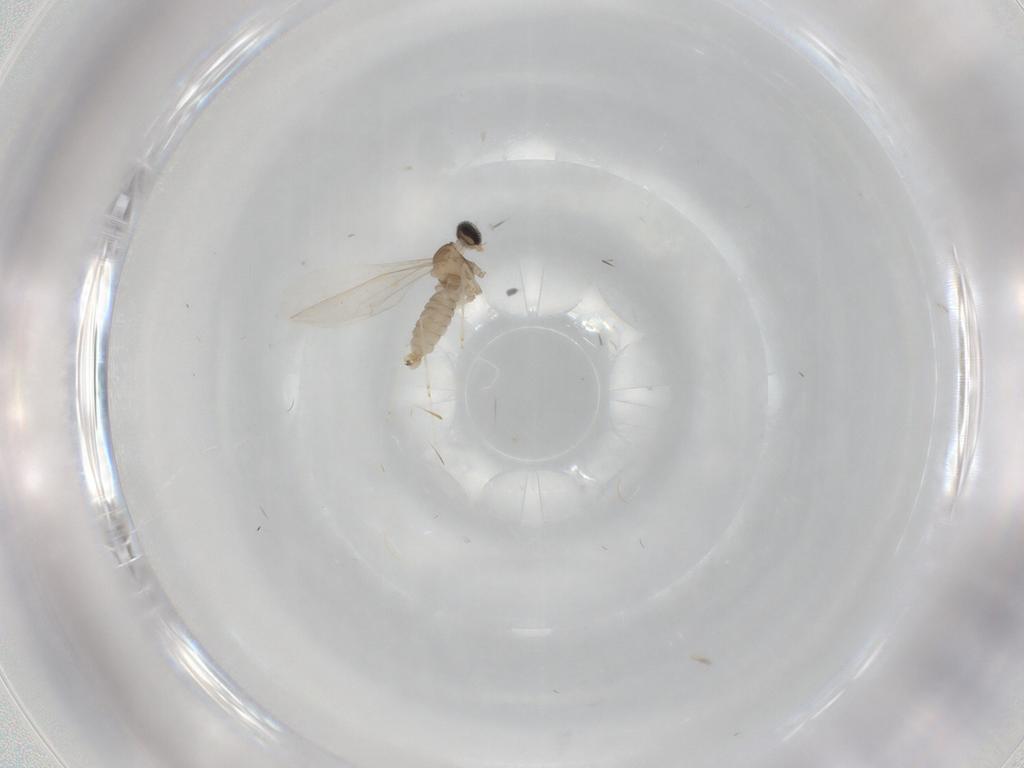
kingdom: Animalia
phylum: Arthropoda
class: Insecta
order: Diptera
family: Cecidomyiidae
